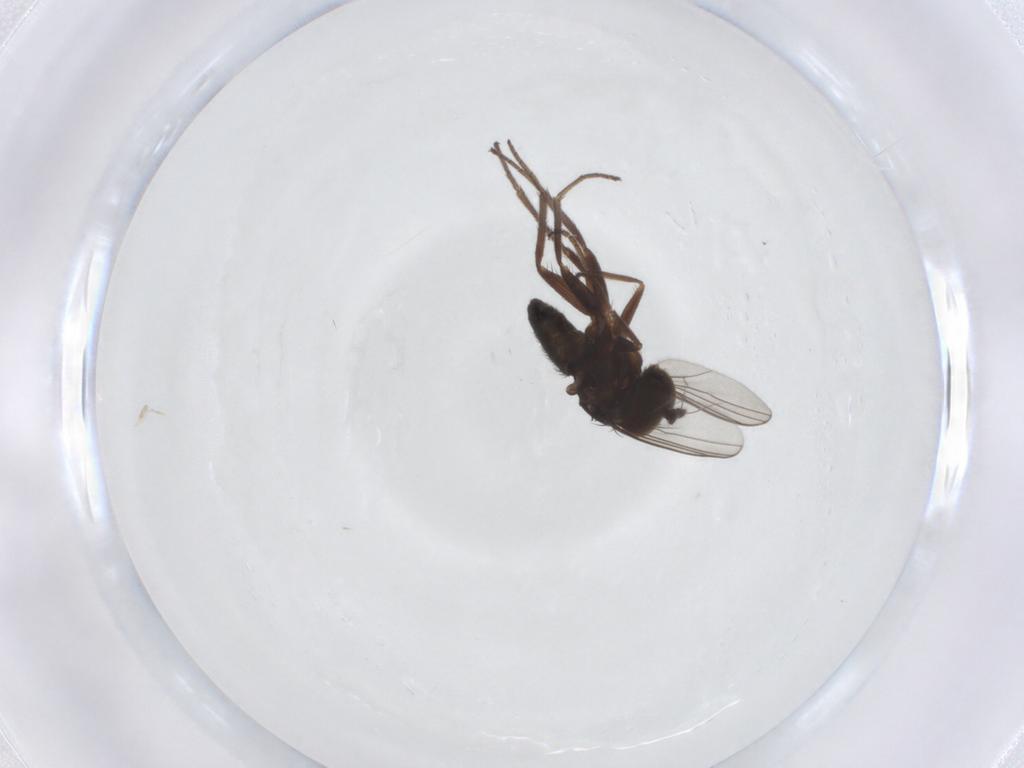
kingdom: Animalia
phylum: Arthropoda
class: Insecta
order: Diptera
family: Dolichopodidae
